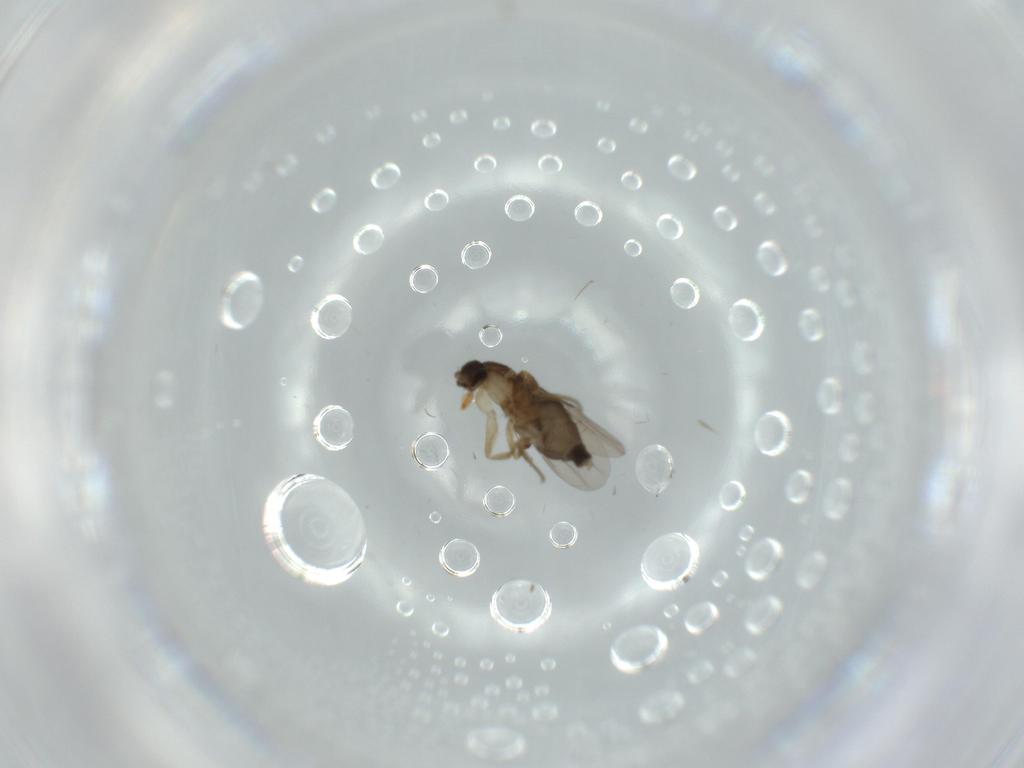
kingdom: Animalia
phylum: Arthropoda
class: Insecta
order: Diptera
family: Phoridae
